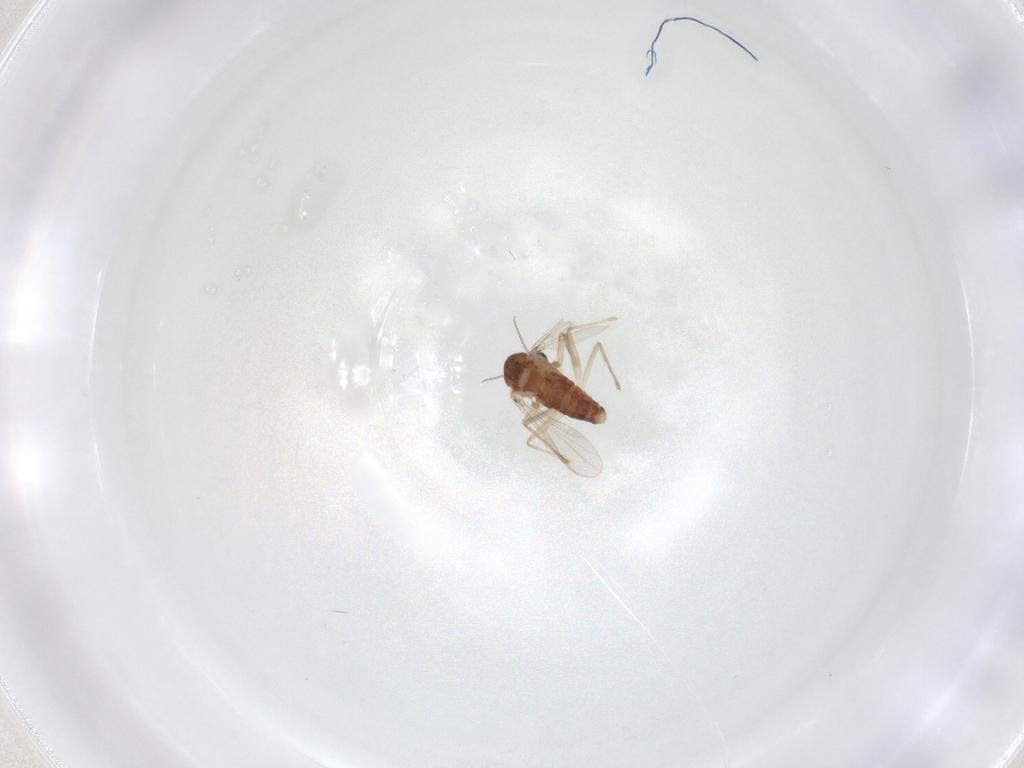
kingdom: Animalia
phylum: Arthropoda
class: Insecta
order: Diptera
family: Chironomidae
